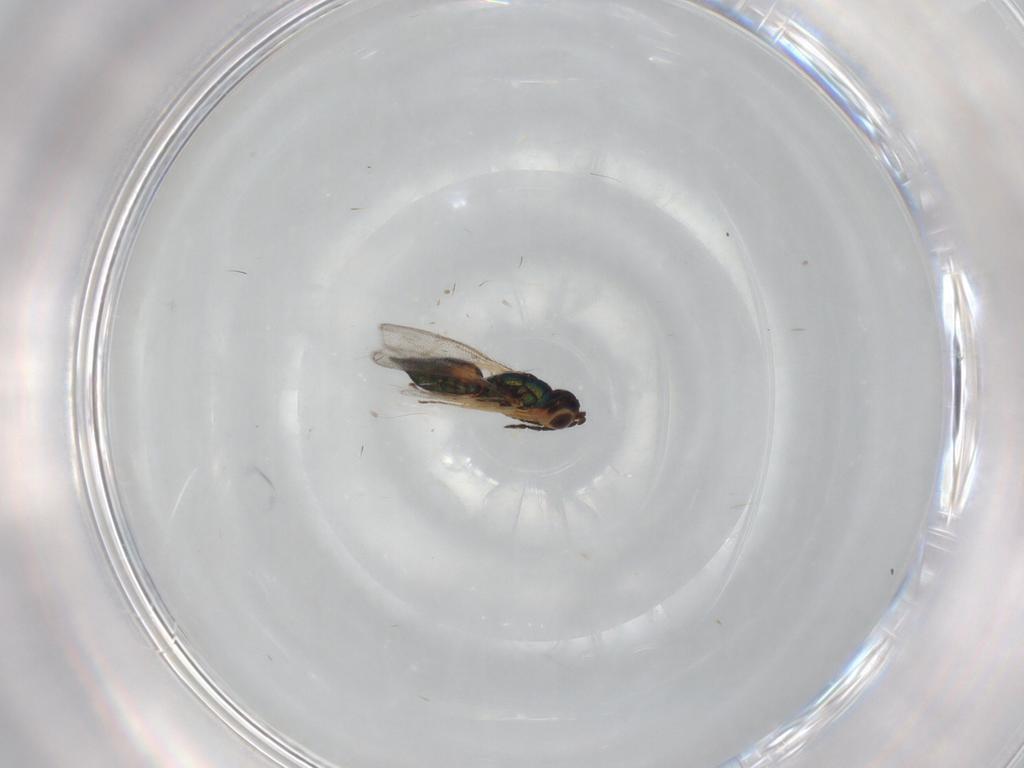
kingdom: Animalia
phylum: Arthropoda
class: Insecta
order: Hymenoptera
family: Eulophidae
